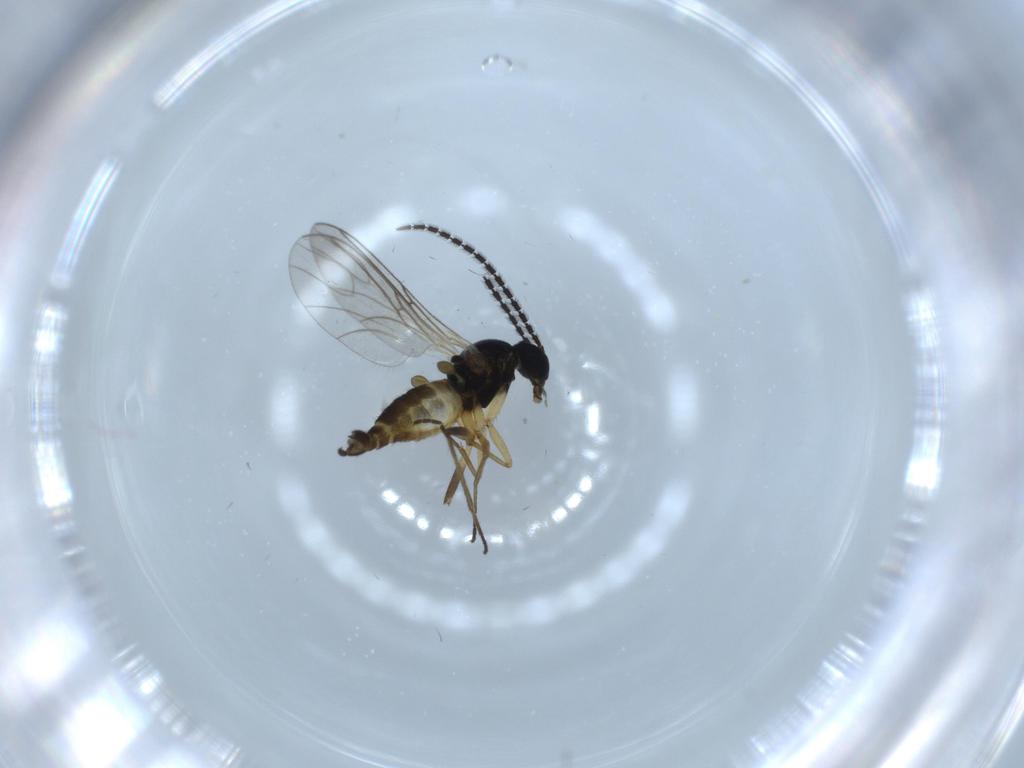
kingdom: Animalia
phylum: Arthropoda
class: Insecta
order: Diptera
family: Sciaridae
